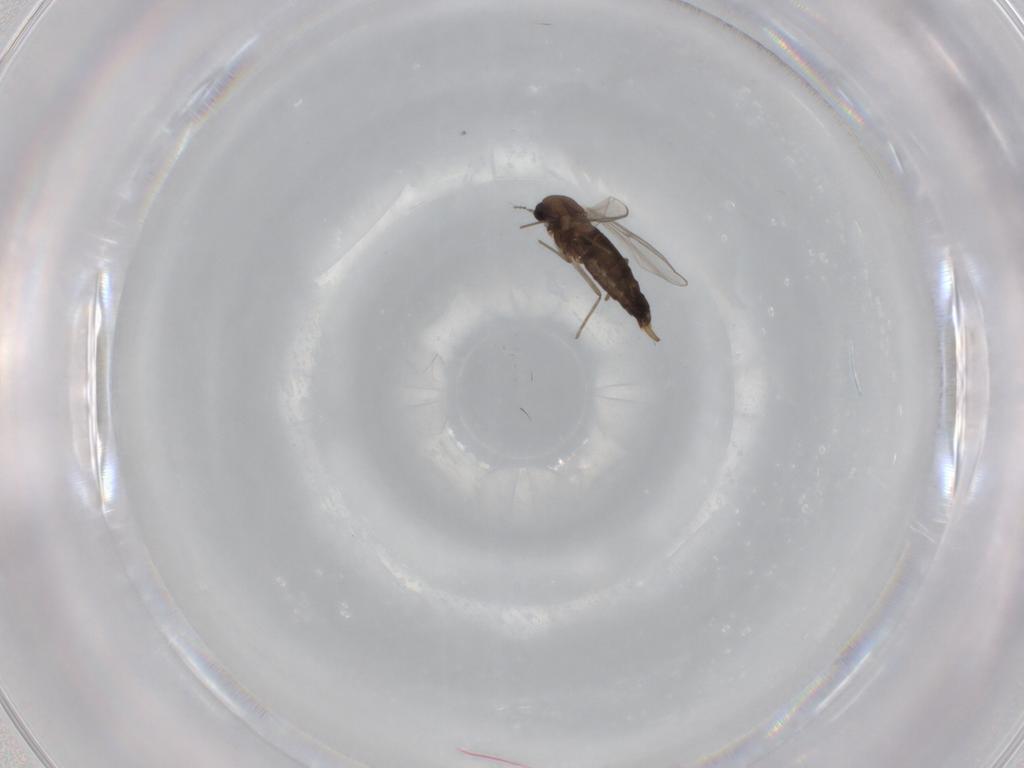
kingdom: Animalia
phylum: Arthropoda
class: Insecta
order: Diptera
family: Chironomidae
